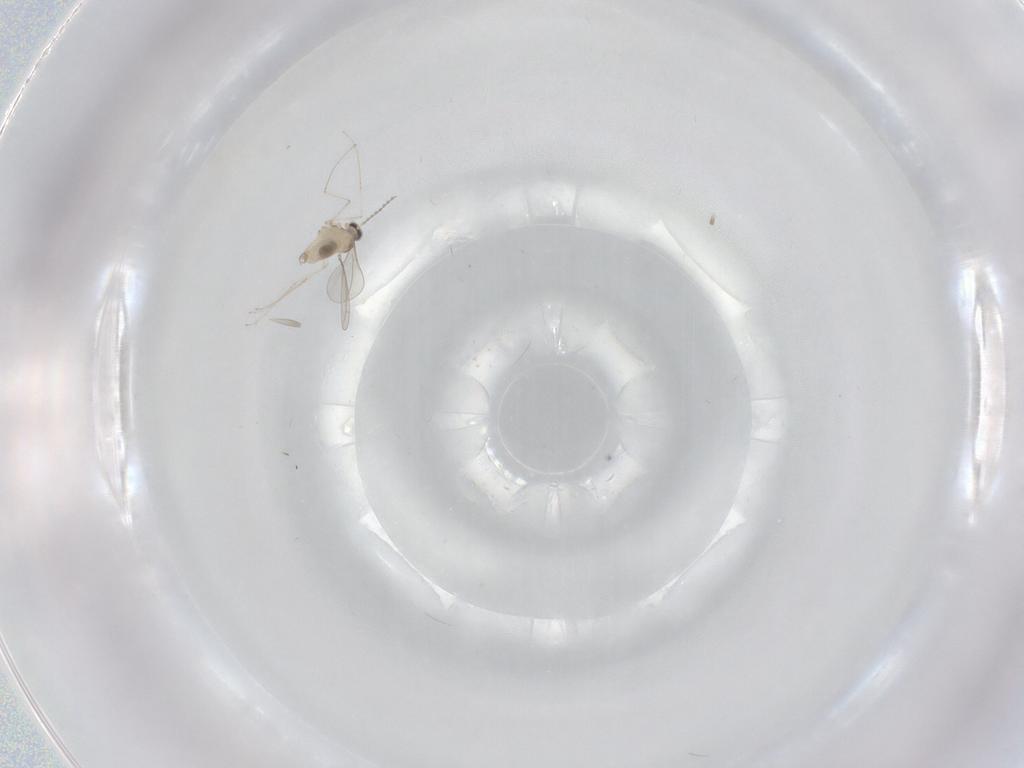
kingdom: Animalia
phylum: Arthropoda
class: Insecta
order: Diptera
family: Cecidomyiidae
